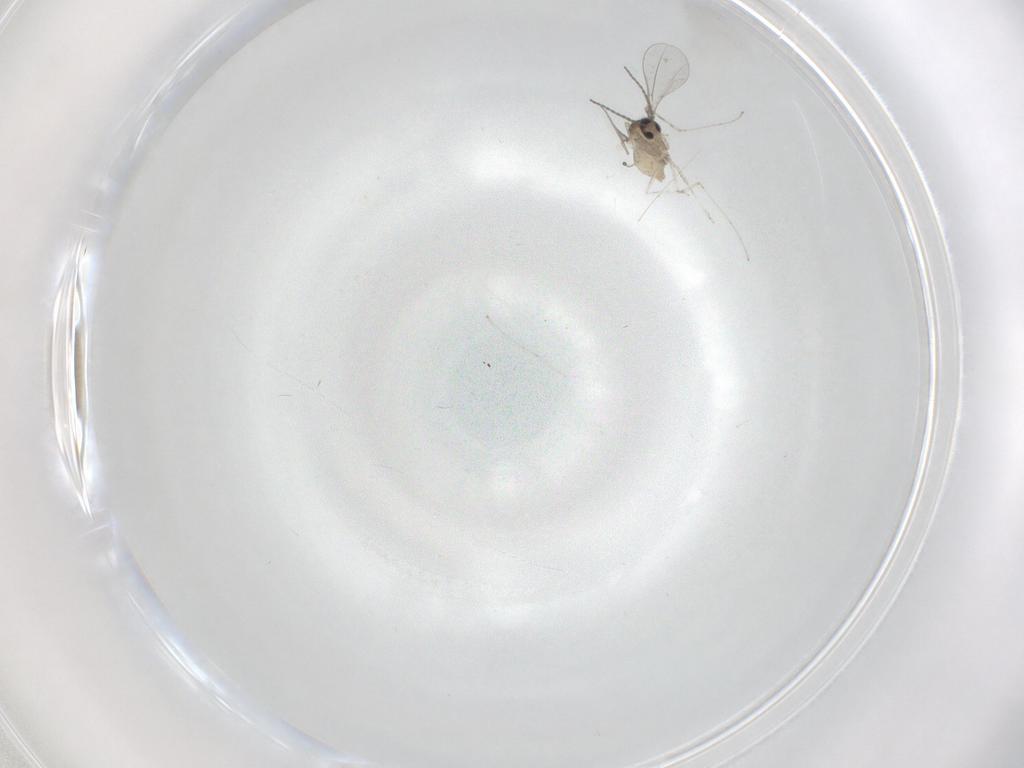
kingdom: Animalia
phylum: Arthropoda
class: Insecta
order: Diptera
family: Cecidomyiidae
